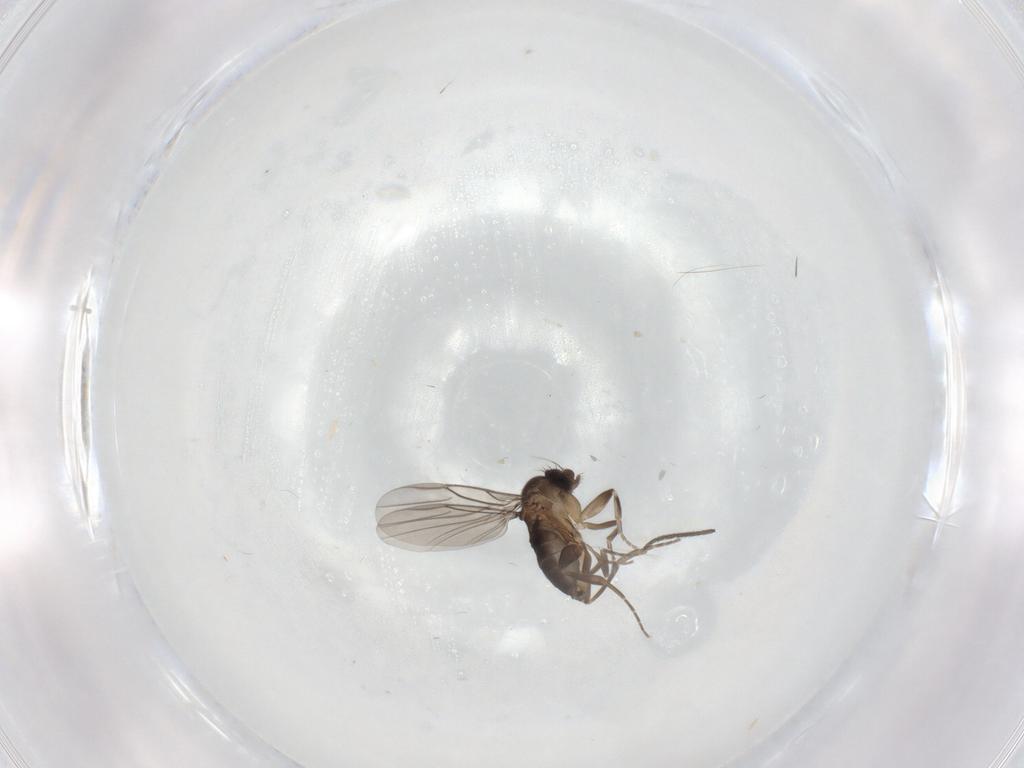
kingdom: Animalia
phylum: Arthropoda
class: Insecta
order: Diptera
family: Sciaridae
